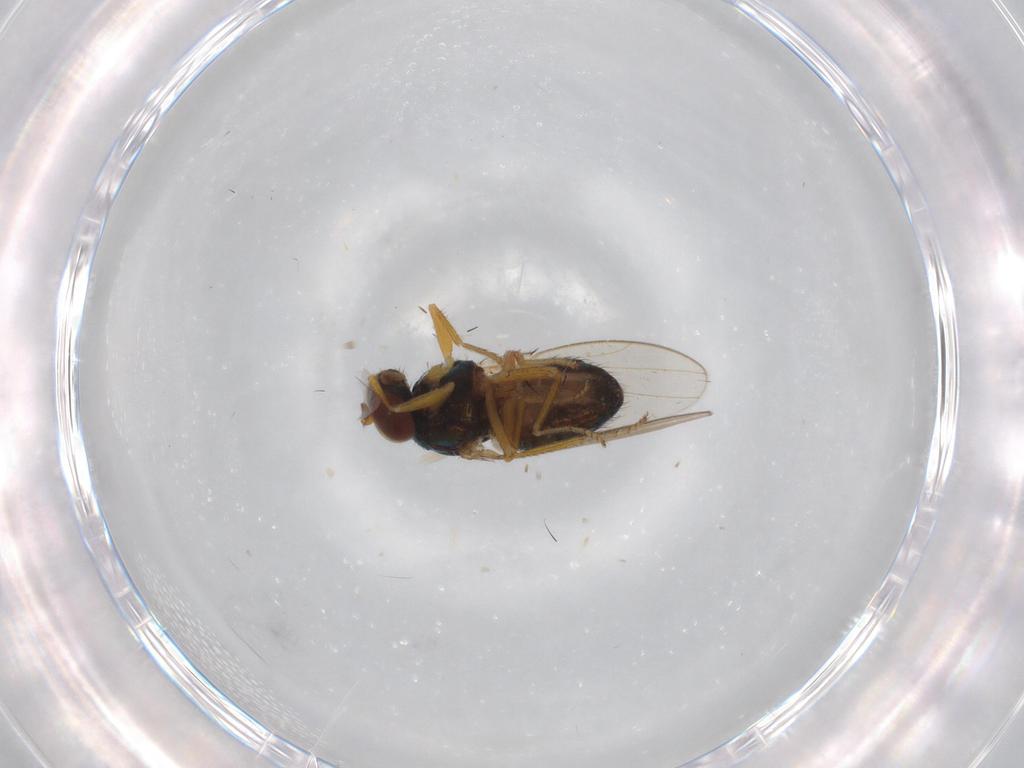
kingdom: Animalia
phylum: Arthropoda
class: Insecta
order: Diptera
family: Ephydridae
